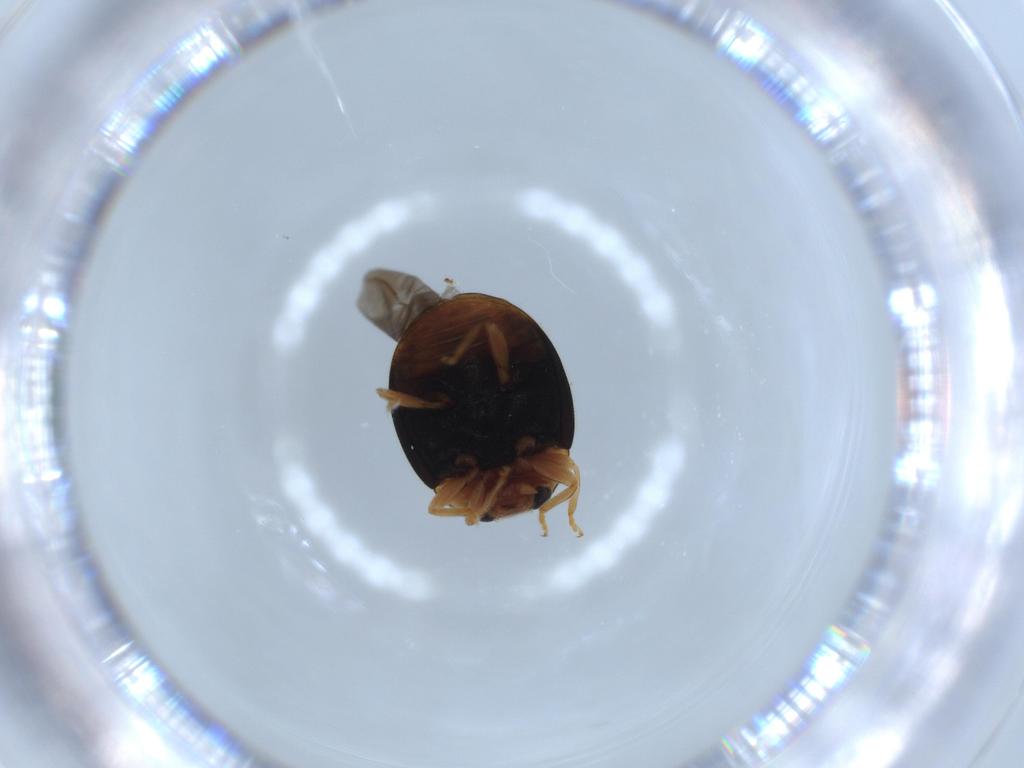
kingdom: Animalia
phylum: Arthropoda
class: Insecta
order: Coleoptera
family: Coccinellidae
